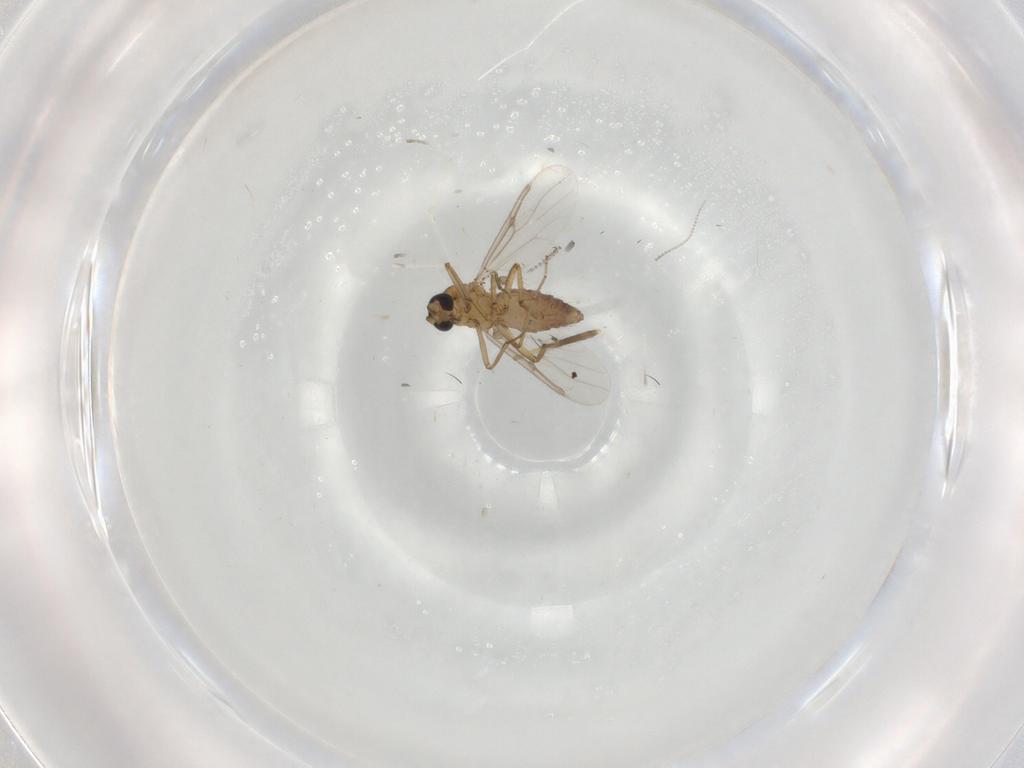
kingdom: Animalia
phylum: Arthropoda
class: Insecta
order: Diptera
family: Chironomidae
